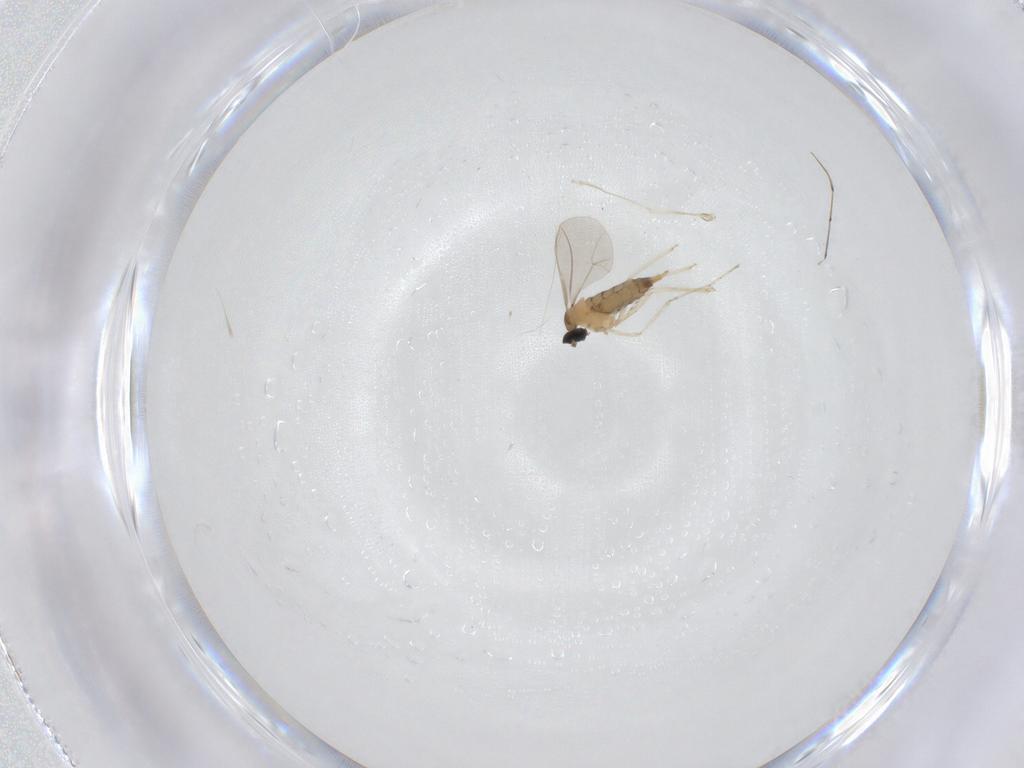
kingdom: Animalia
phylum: Arthropoda
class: Insecta
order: Diptera
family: Cecidomyiidae
